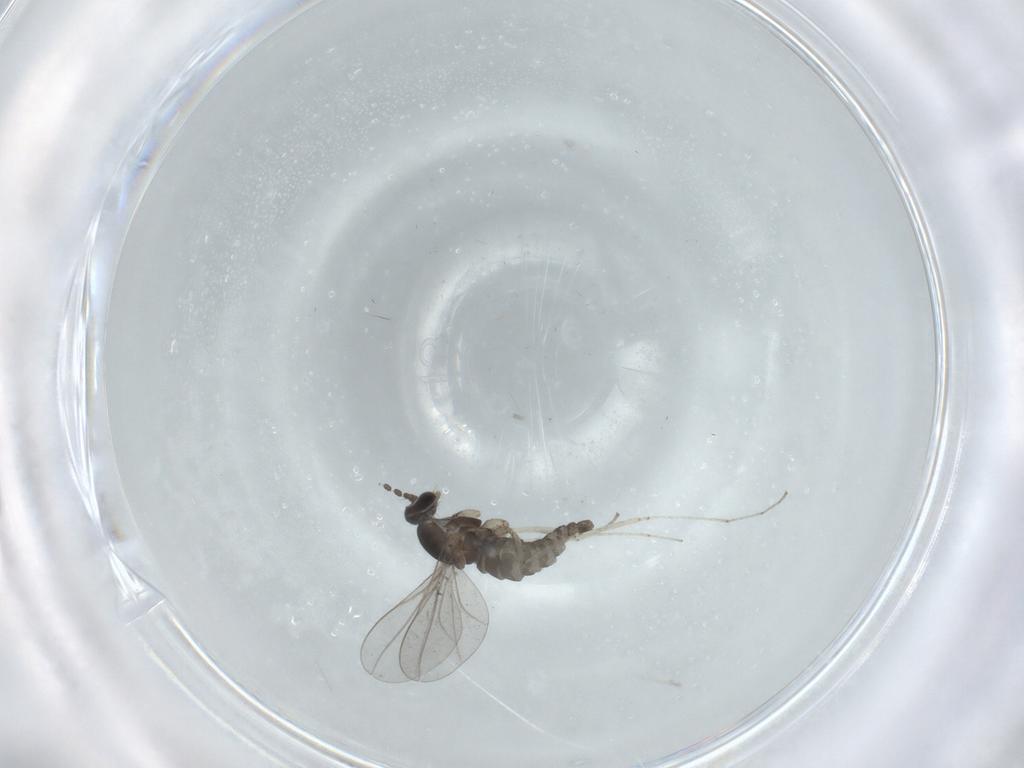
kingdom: Animalia
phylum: Arthropoda
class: Insecta
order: Diptera
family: Cecidomyiidae
